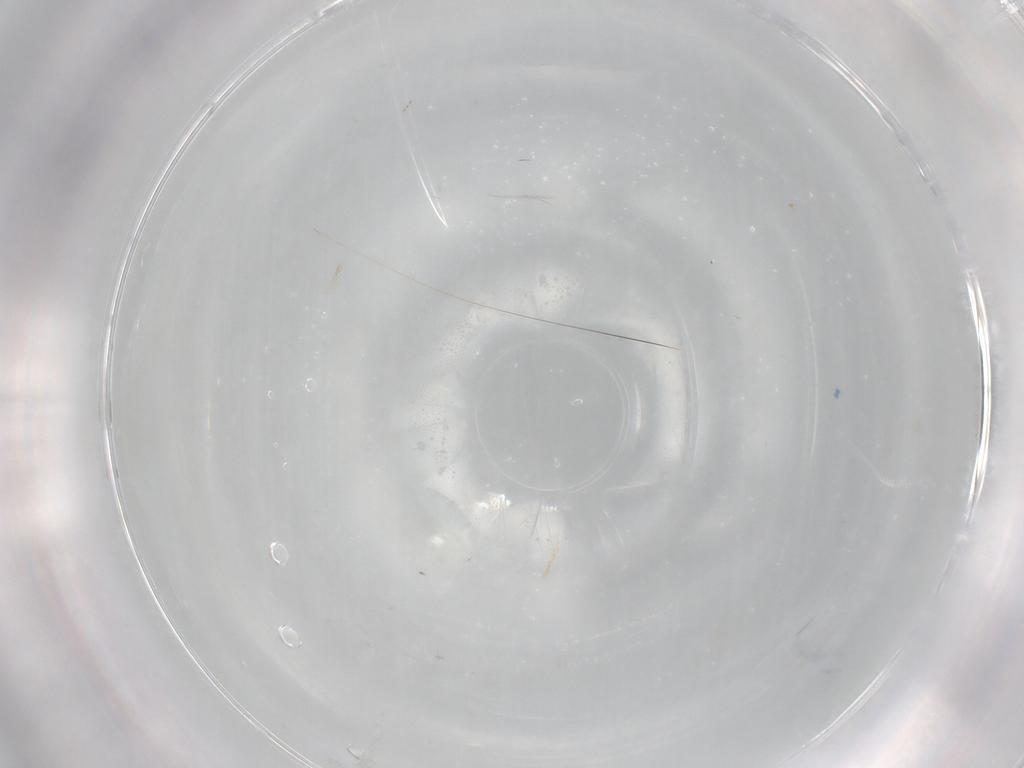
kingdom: Animalia
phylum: Arthropoda
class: Insecta
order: Diptera
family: Cecidomyiidae
